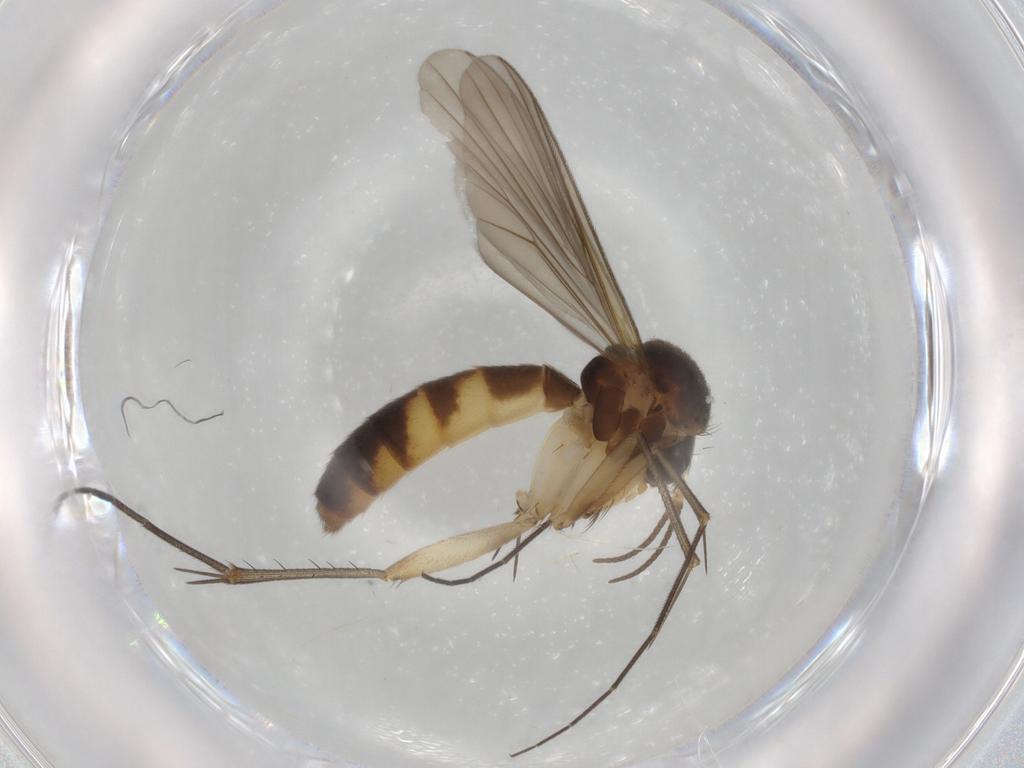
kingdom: Animalia
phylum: Arthropoda
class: Insecta
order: Diptera
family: Mycetophilidae
